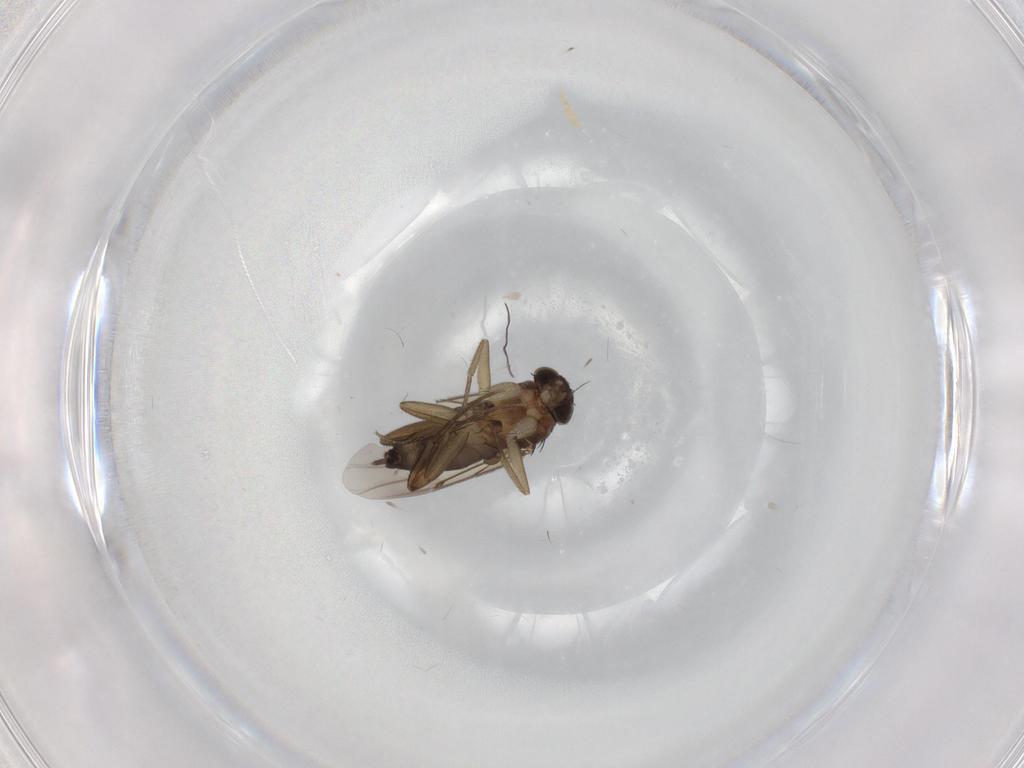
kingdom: Animalia
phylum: Arthropoda
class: Insecta
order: Diptera
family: Phoridae
